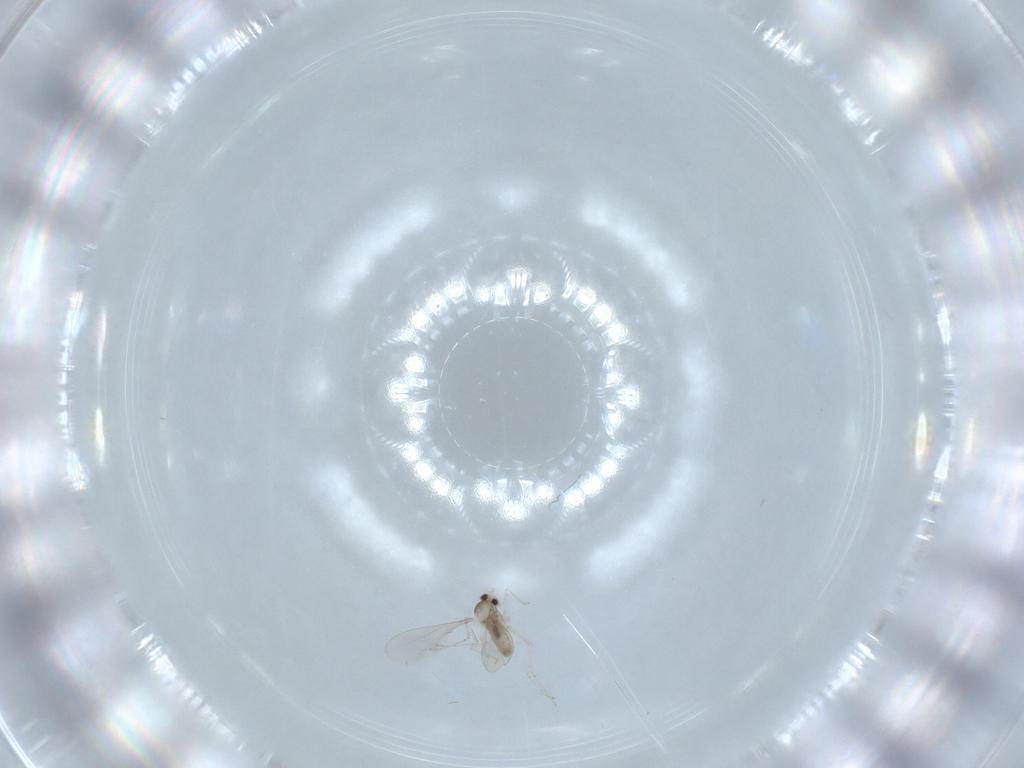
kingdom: Animalia
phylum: Arthropoda
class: Insecta
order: Diptera
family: Cecidomyiidae
